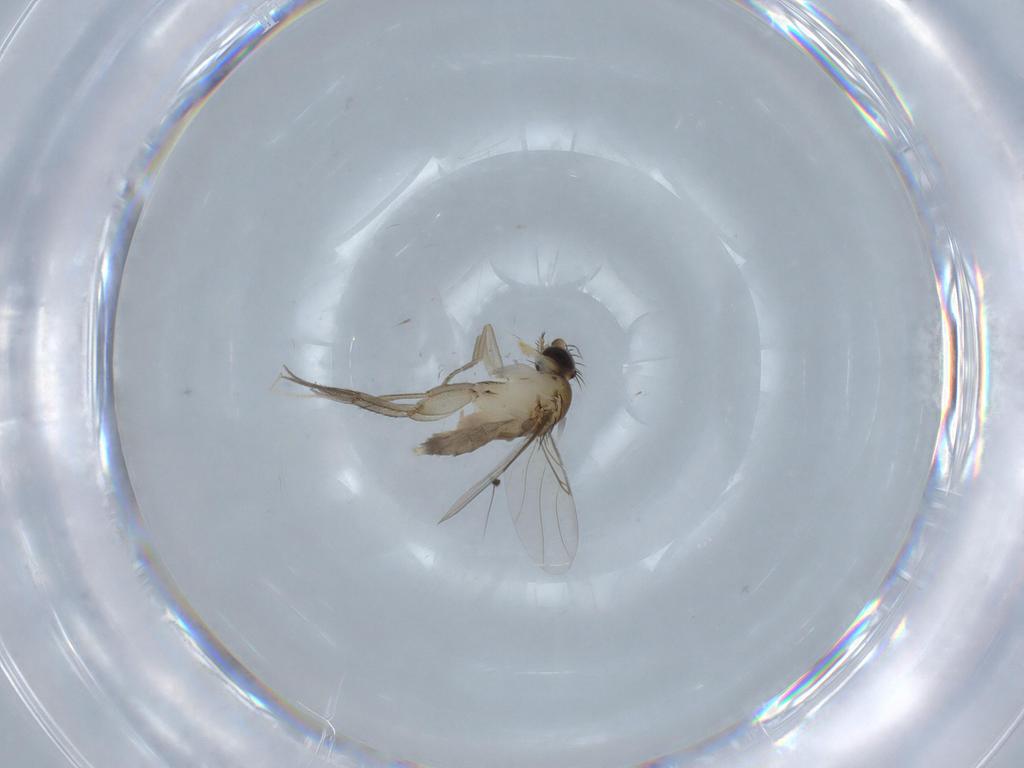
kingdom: Animalia
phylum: Arthropoda
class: Insecta
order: Diptera
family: Phoridae
